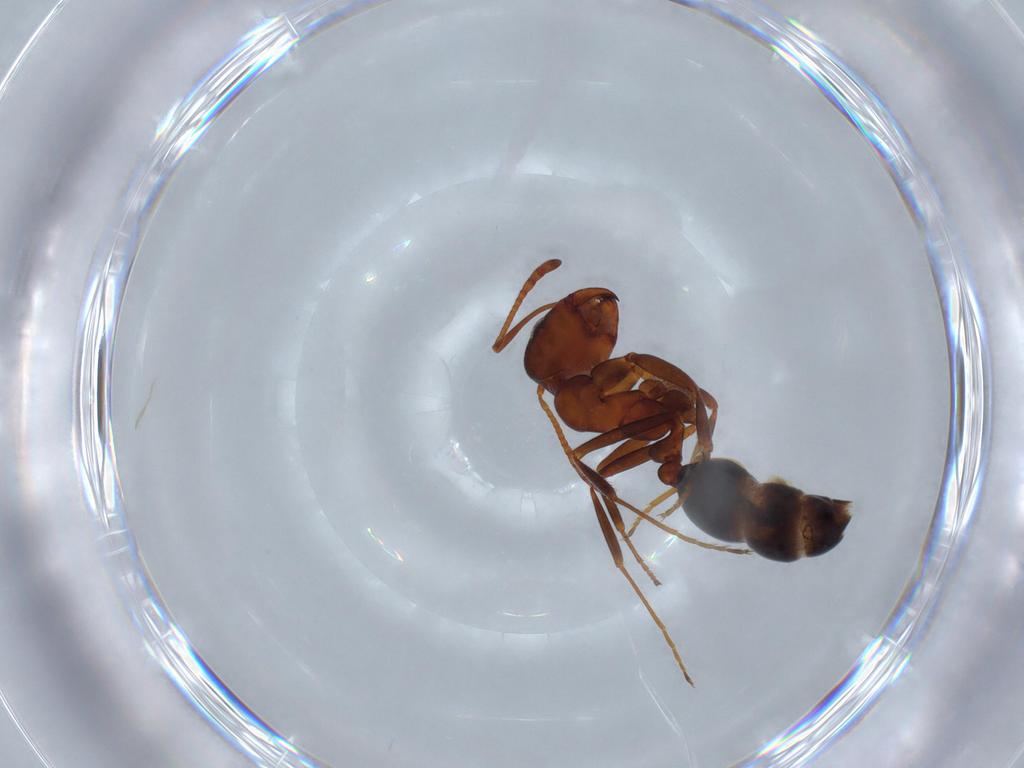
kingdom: Animalia
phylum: Arthropoda
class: Insecta
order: Hymenoptera
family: Formicidae
